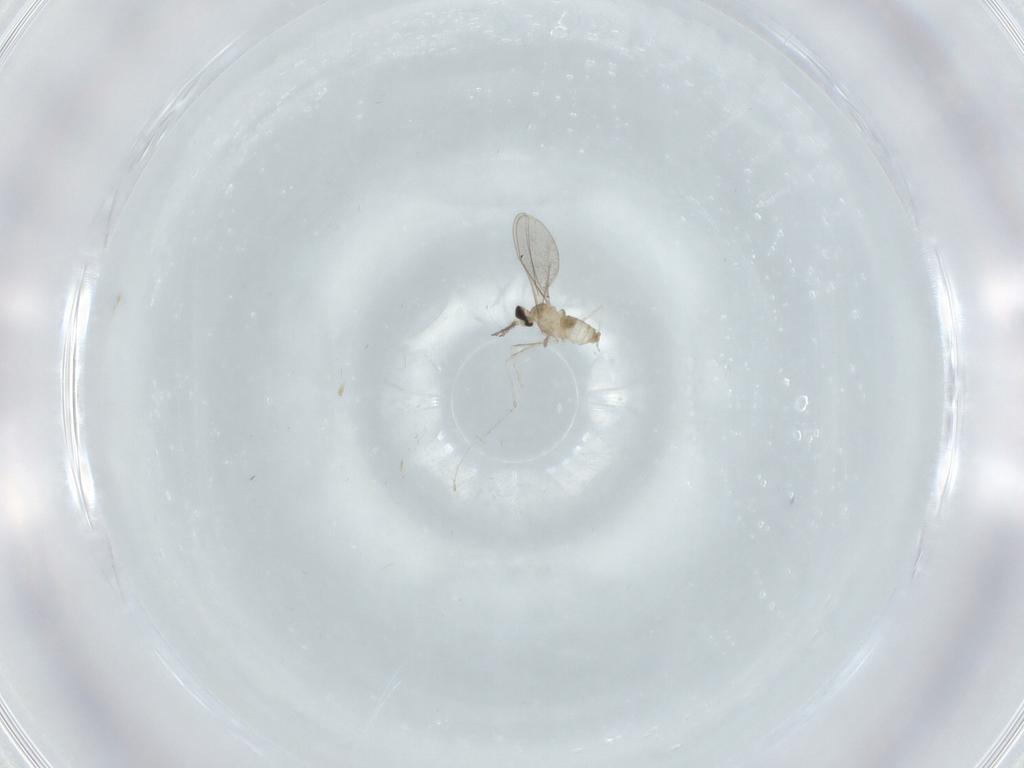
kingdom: Animalia
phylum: Arthropoda
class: Insecta
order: Diptera
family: Cecidomyiidae
